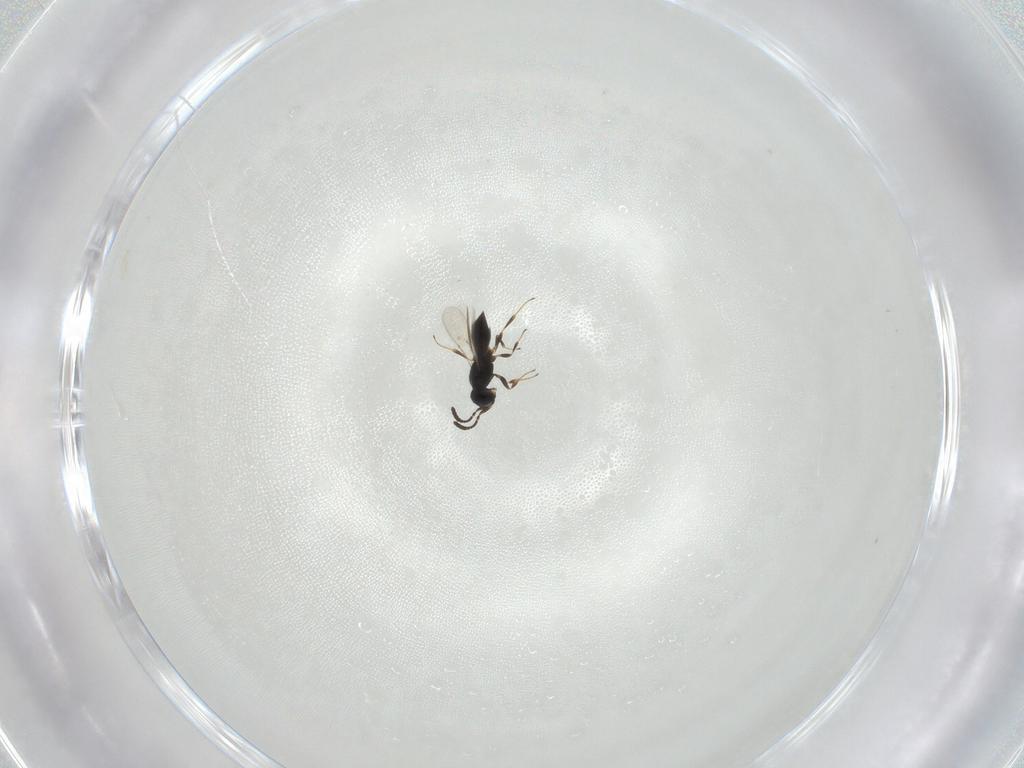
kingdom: Animalia
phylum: Arthropoda
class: Insecta
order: Hymenoptera
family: Scelionidae
